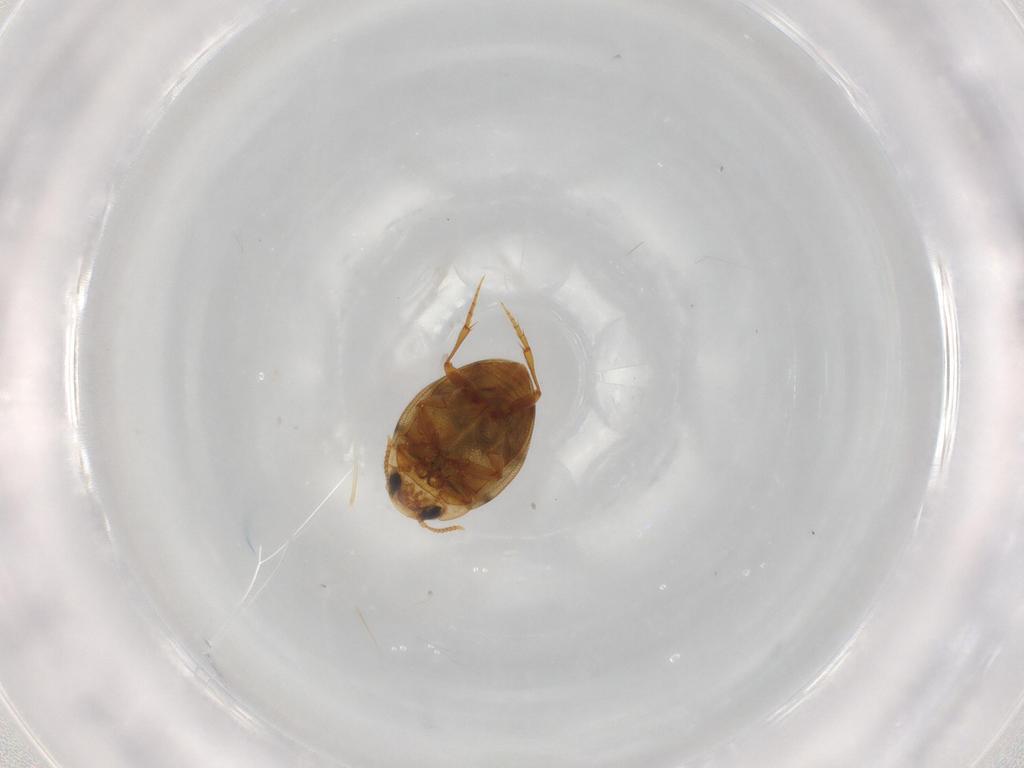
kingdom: Animalia
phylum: Arthropoda
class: Insecta
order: Coleoptera
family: Dytiscidae
